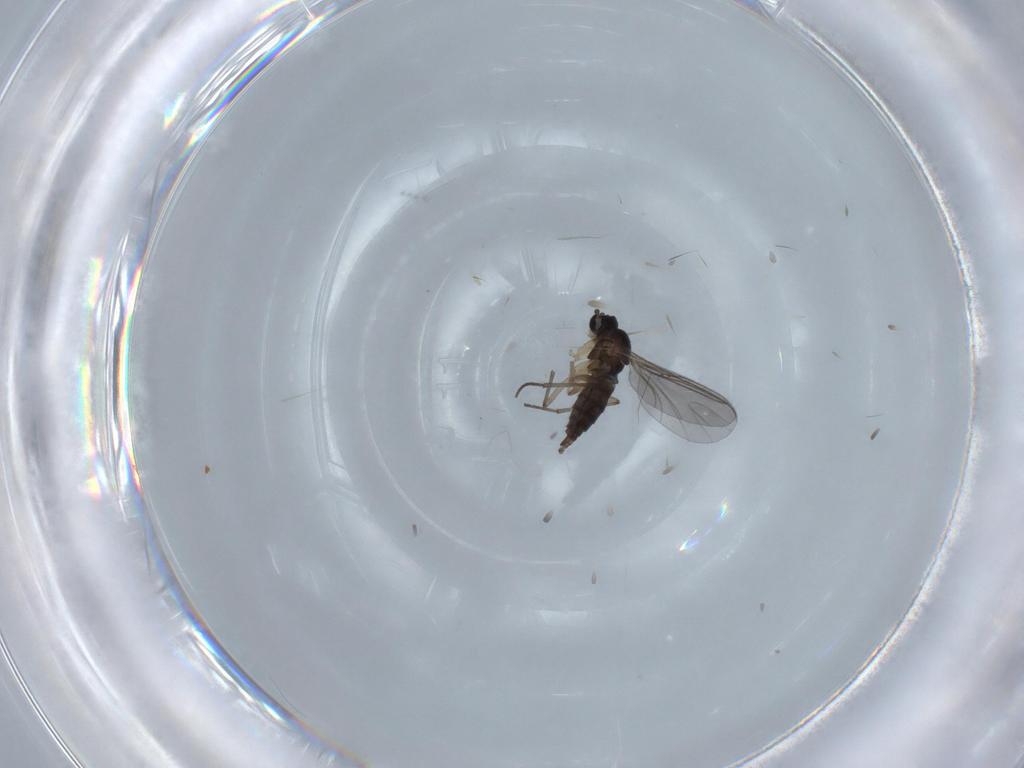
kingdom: Animalia
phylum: Arthropoda
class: Insecta
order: Diptera
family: Sciaridae
